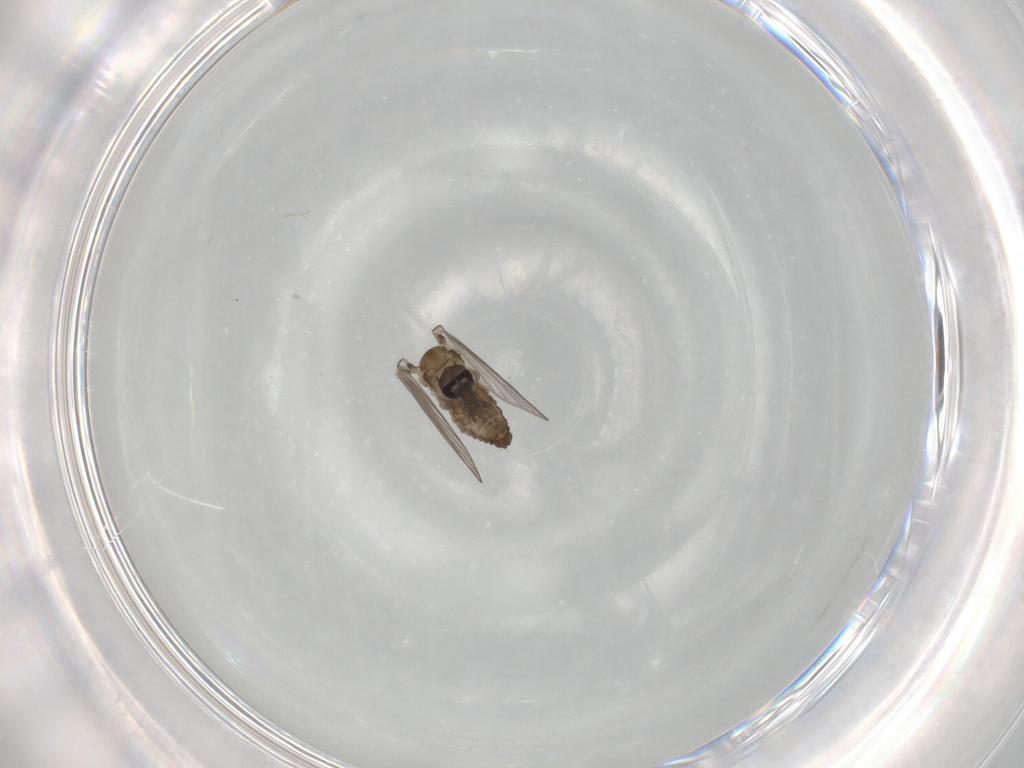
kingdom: Animalia
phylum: Arthropoda
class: Insecta
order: Diptera
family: Psychodidae
